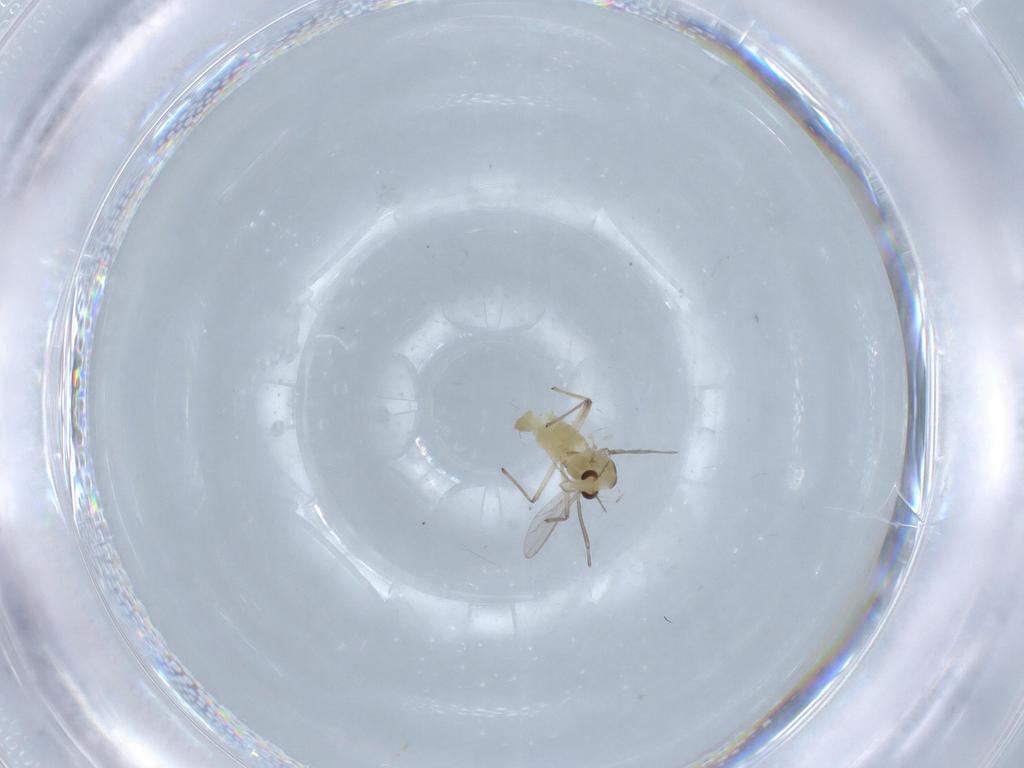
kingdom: Animalia
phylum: Arthropoda
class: Insecta
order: Diptera
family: Chironomidae
